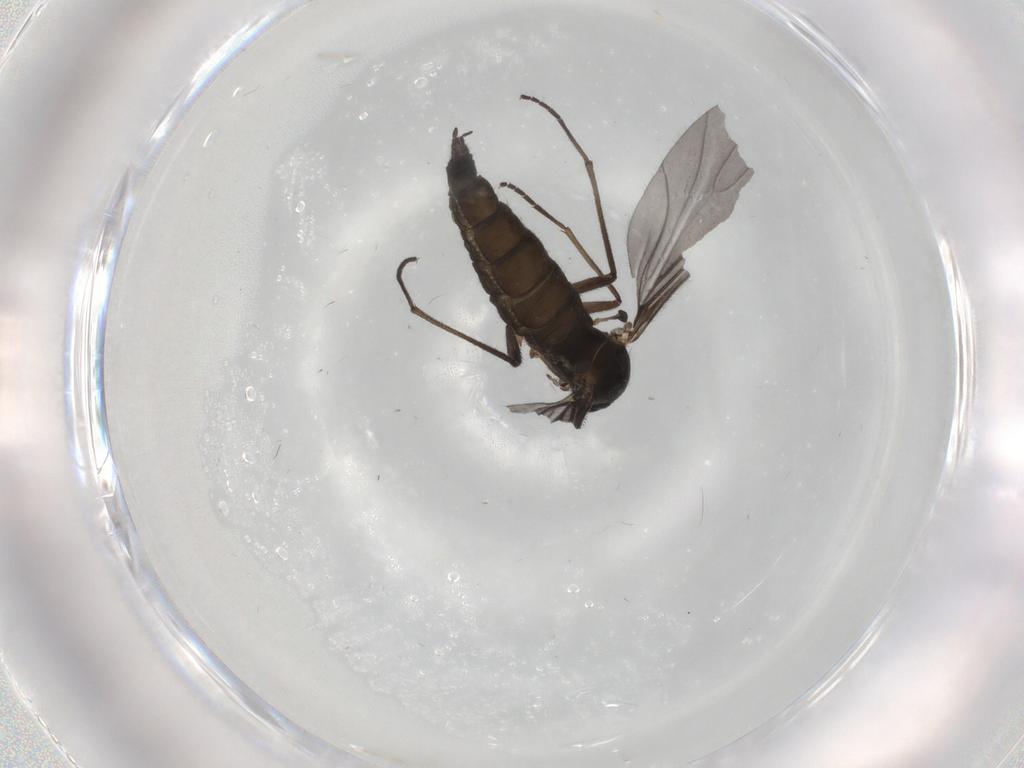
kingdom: Animalia
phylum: Arthropoda
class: Insecta
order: Diptera
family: Sciaridae
